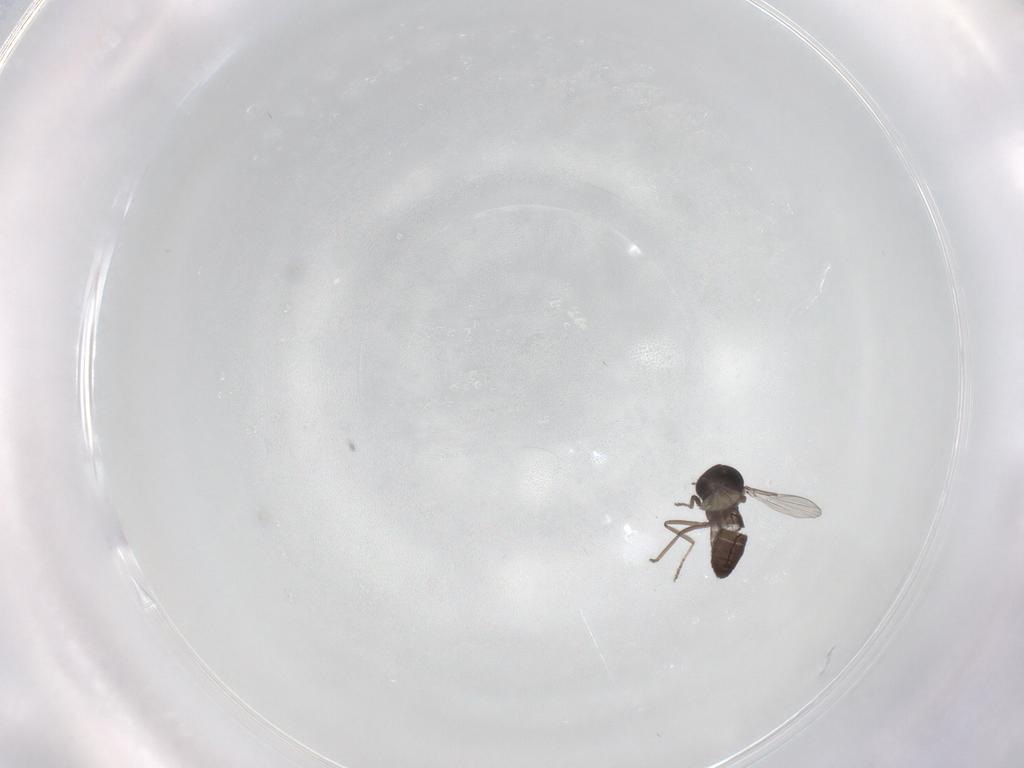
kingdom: Animalia
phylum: Arthropoda
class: Insecta
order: Diptera
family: Ceratopogonidae
